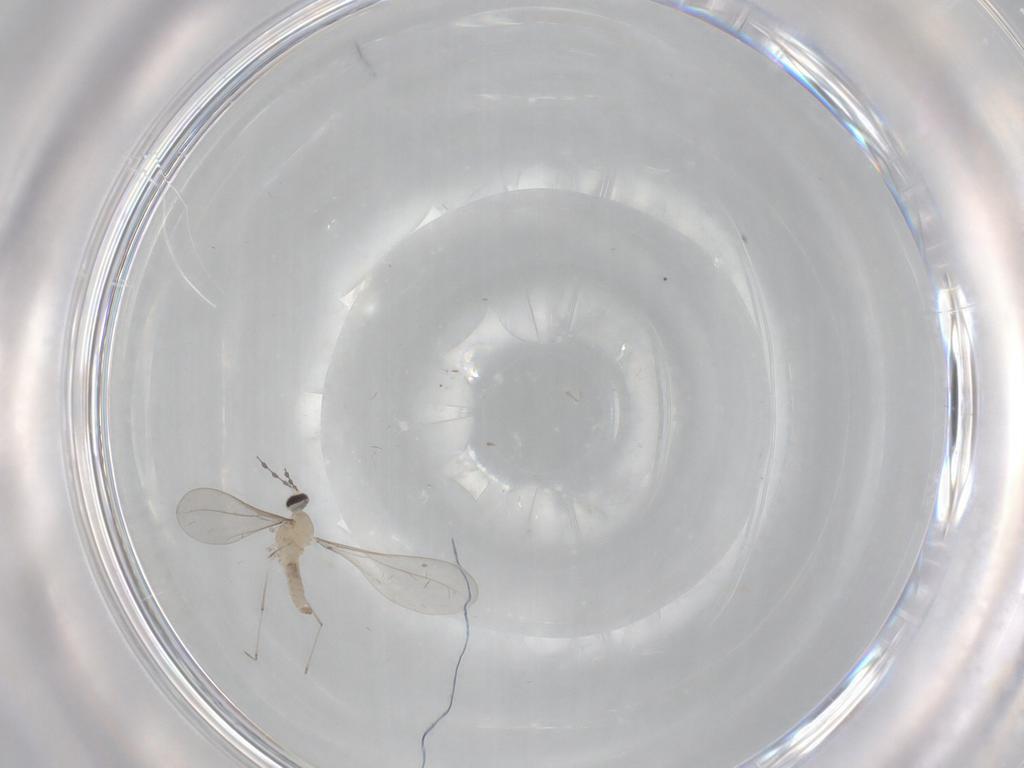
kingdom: Animalia
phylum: Arthropoda
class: Insecta
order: Diptera
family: Cecidomyiidae
